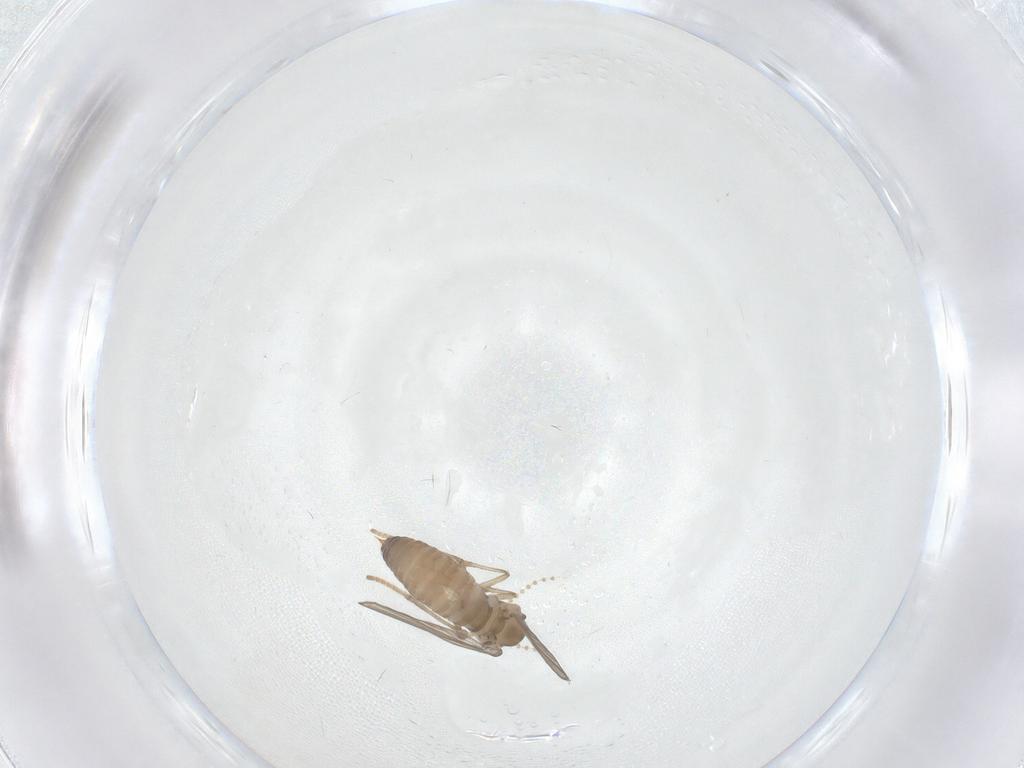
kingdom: Animalia
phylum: Arthropoda
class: Insecta
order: Diptera
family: Psychodidae
